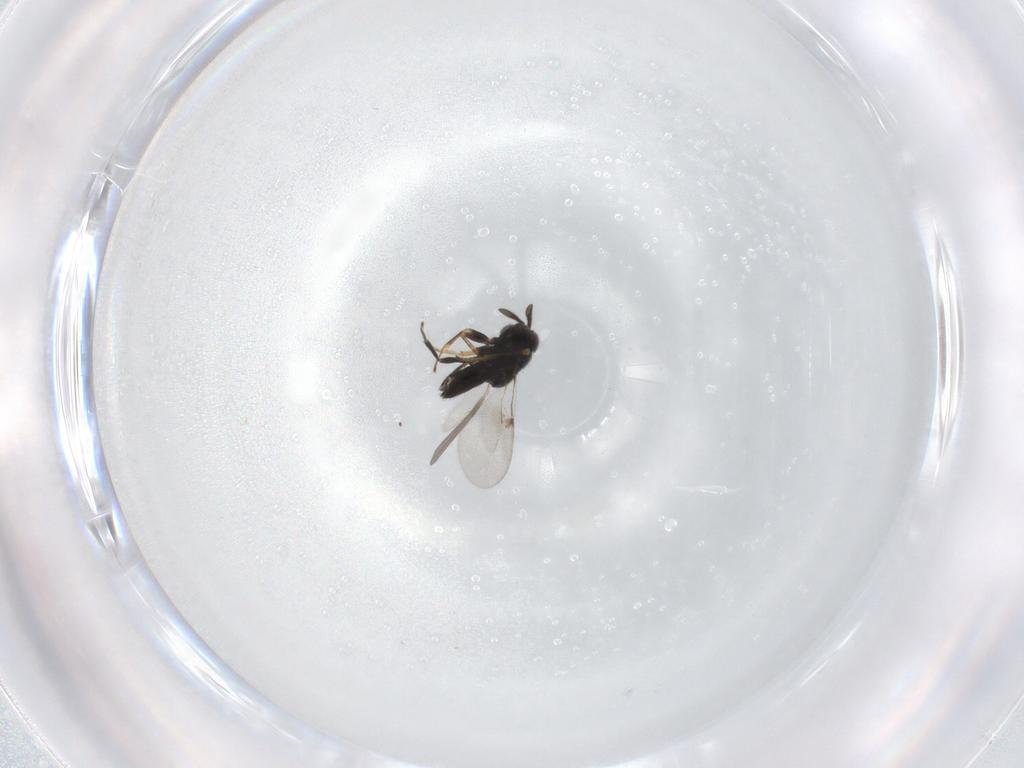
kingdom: Animalia
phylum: Arthropoda
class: Insecta
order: Hymenoptera
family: Encyrtidae
